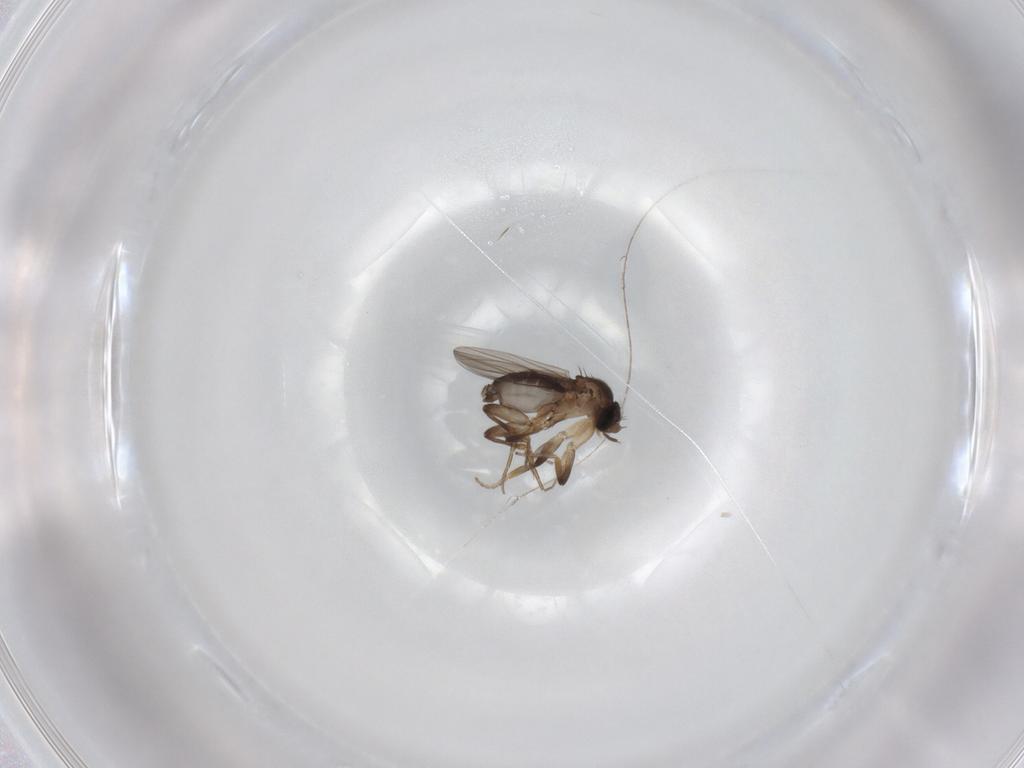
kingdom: Animalia
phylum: Arthropoda
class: Insecta
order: Diptera
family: Phoridae
